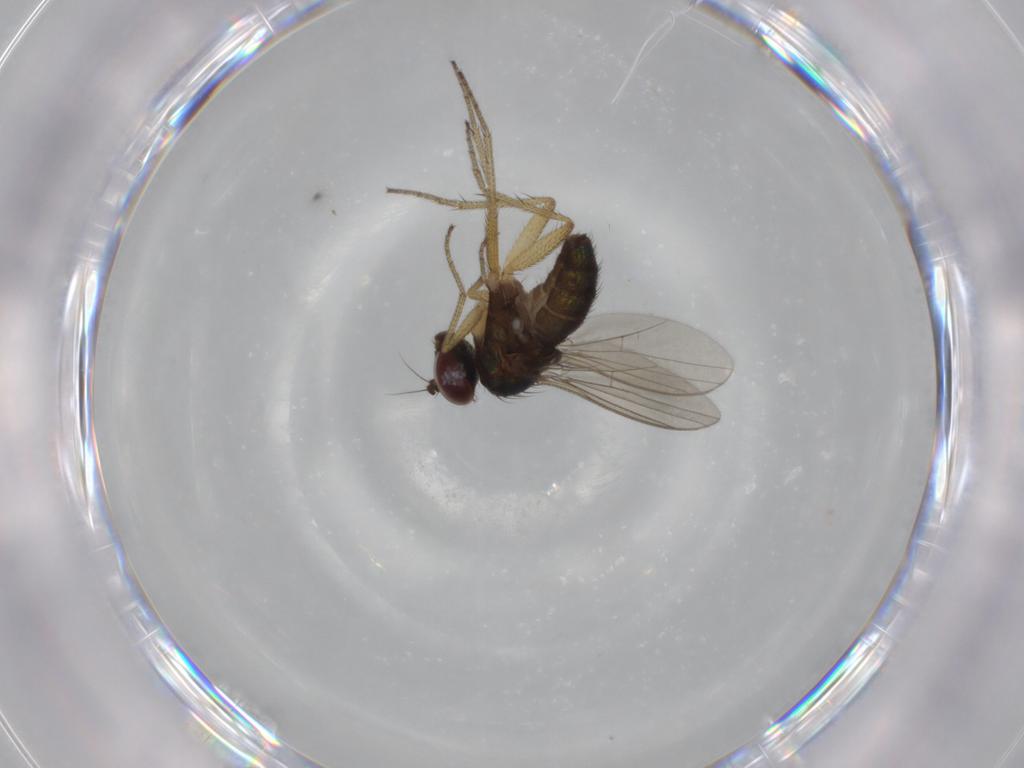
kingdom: Animalia
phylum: Arthropoda
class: Insecta
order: Diptera
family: Dolichopodidae
